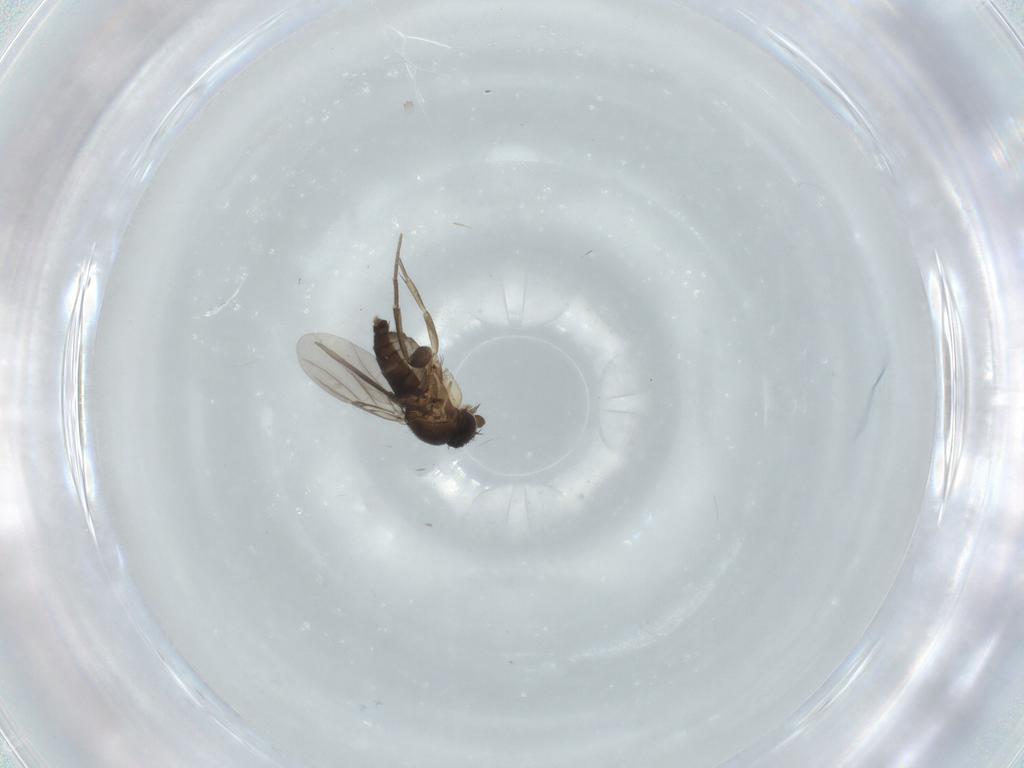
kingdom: Animalia
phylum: Arthropoda
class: Insecta
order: Diptera
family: Phoridae
